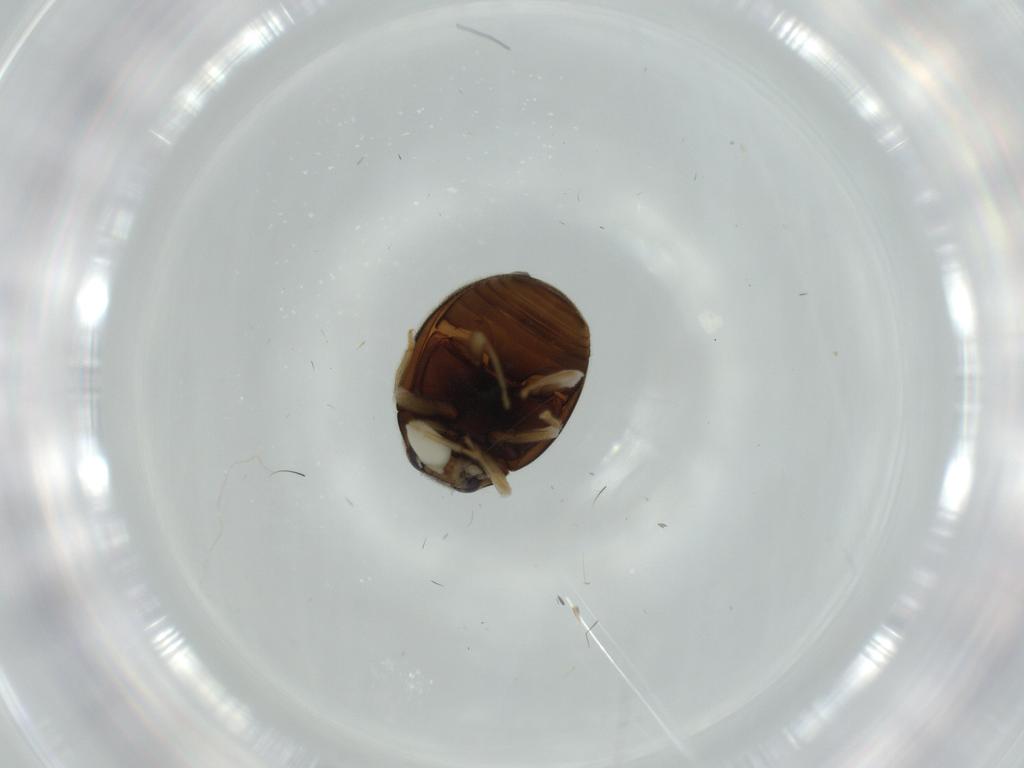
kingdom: Animalia
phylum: Arthropoda
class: Insecta
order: Coleoptera
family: Coccinellidae
